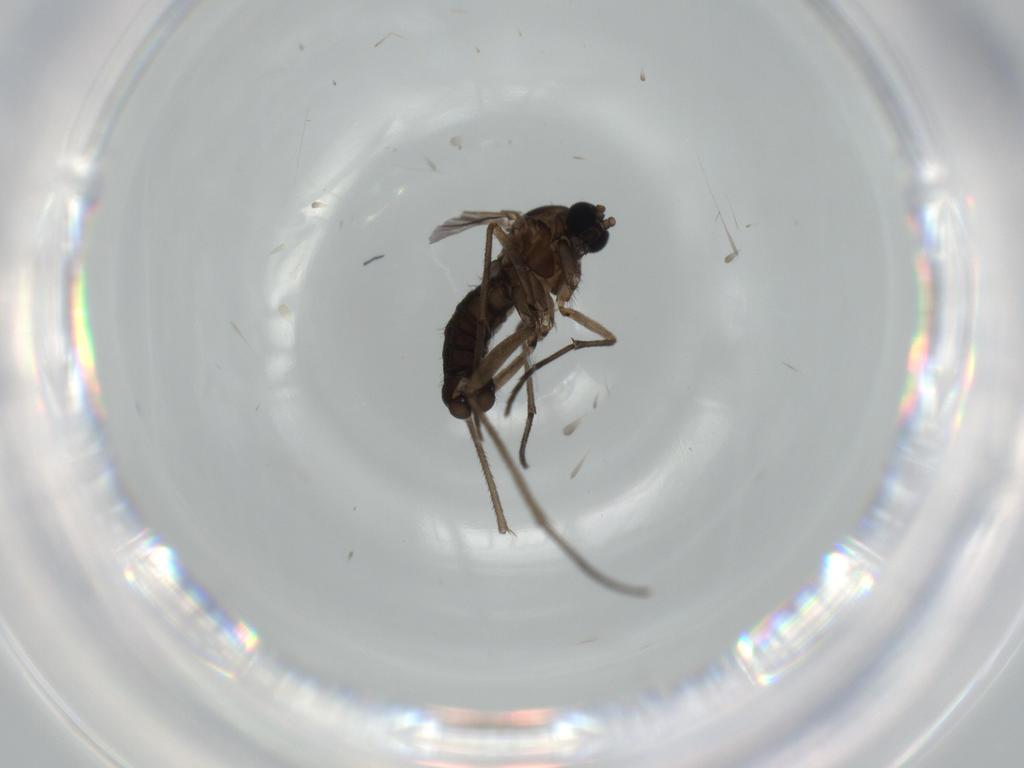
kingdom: Animalia
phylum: Arthropoda
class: Insecta
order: Diptera
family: Sciaridae
